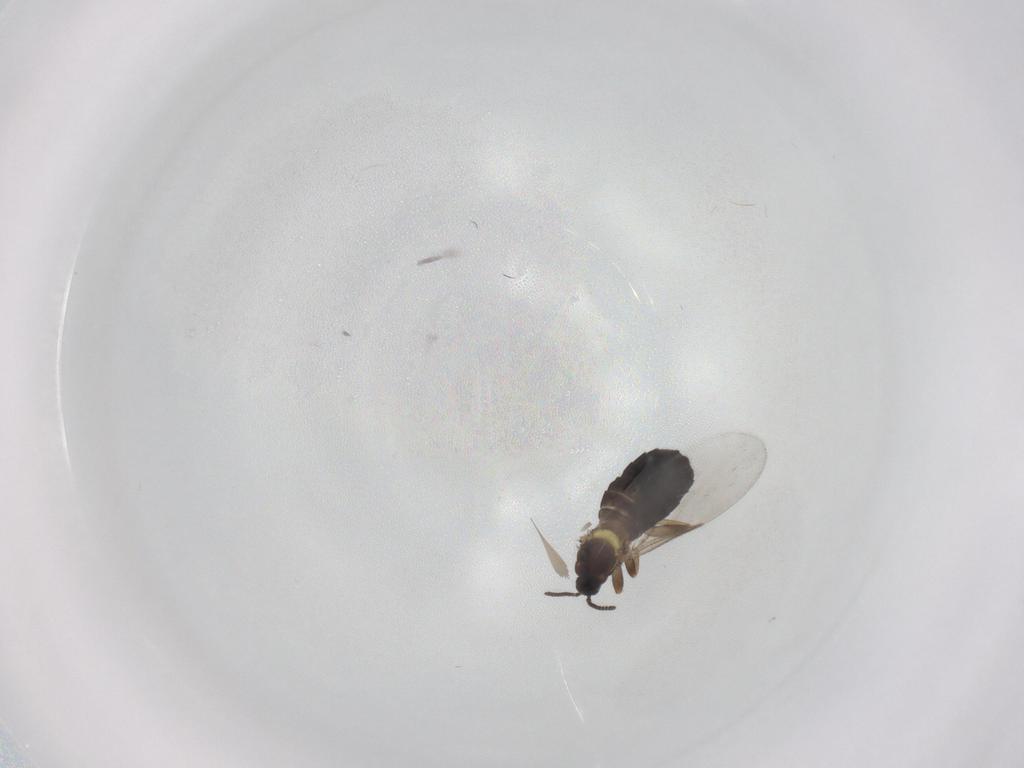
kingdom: Animalia
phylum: Arthropoda
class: Insecta
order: Diptera
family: Scatopsidae
